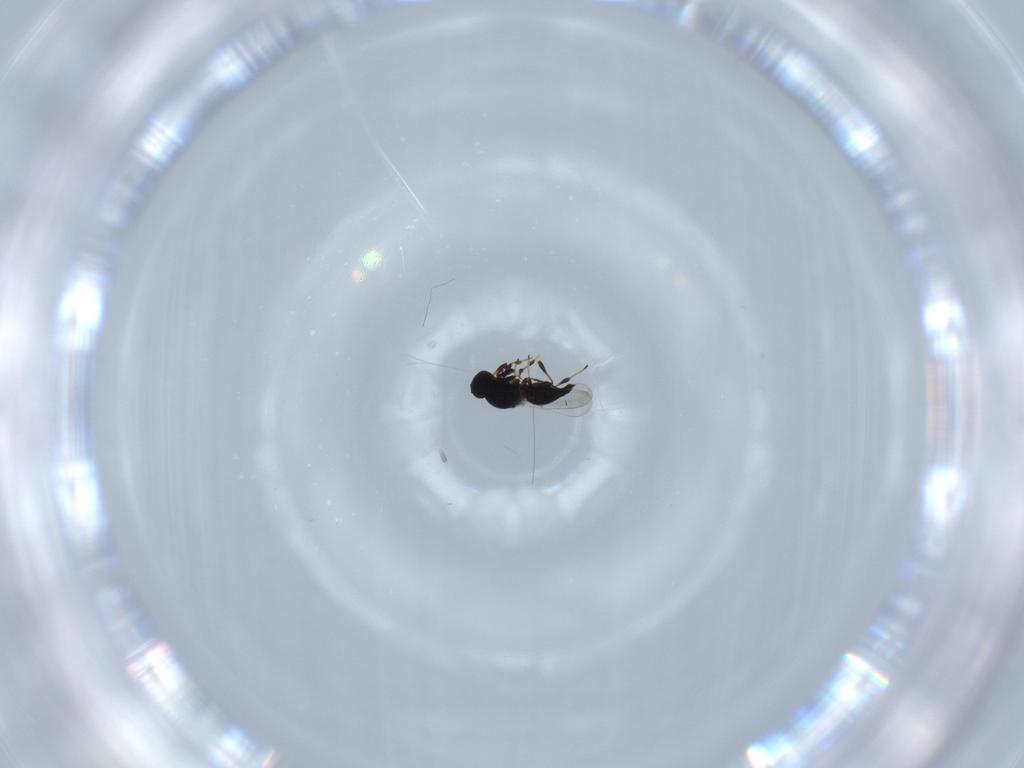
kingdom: Animalia
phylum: Arthropoda
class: Insecta
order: Hymenoptera
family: Platygastridae
